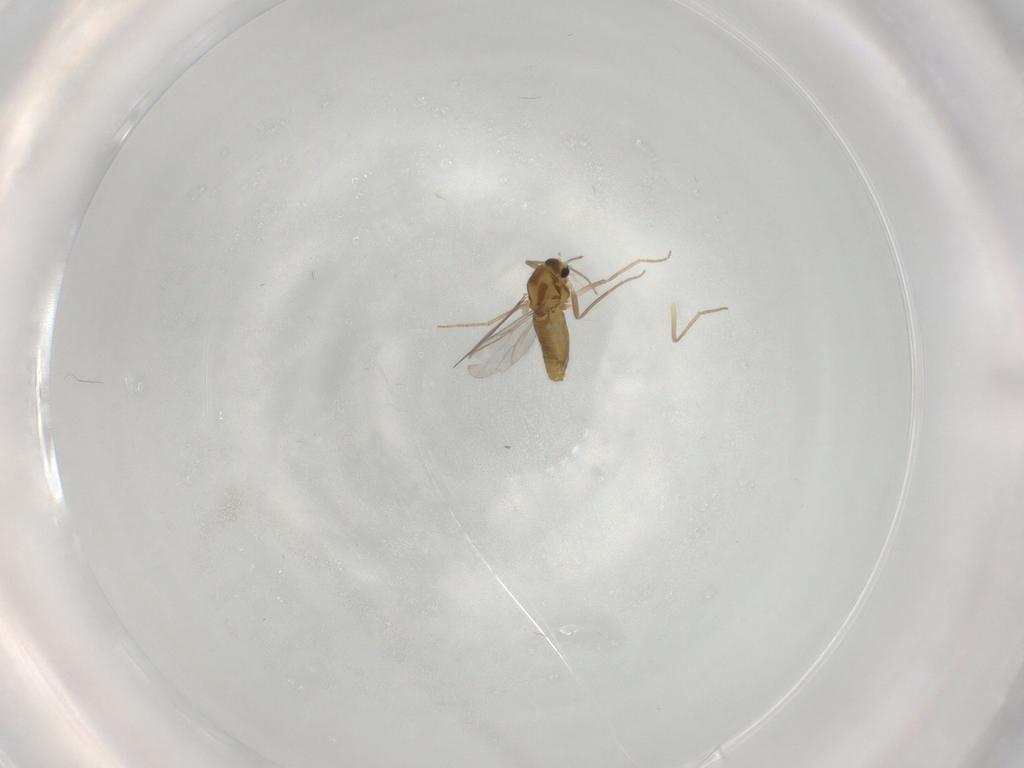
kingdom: Animalia
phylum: Arthropoda
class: Insecta
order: Diptera
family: Chironomidae
